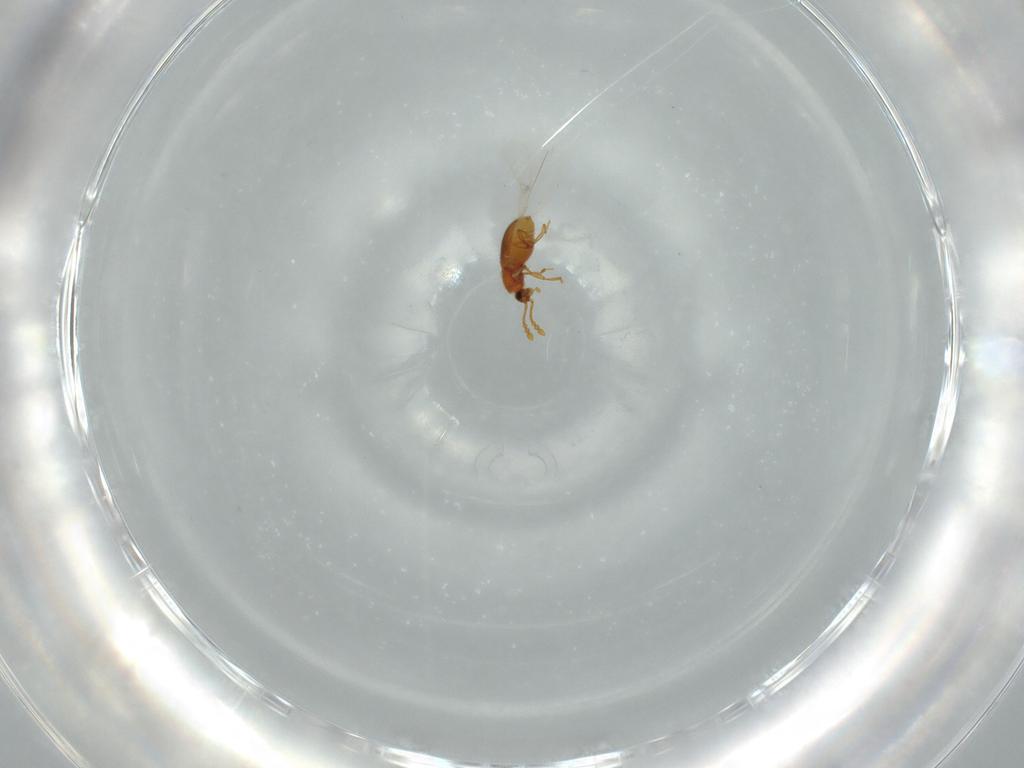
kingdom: Animalia
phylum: Arthropoda
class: Insecta
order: Coleoptera
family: Staphylinidae
